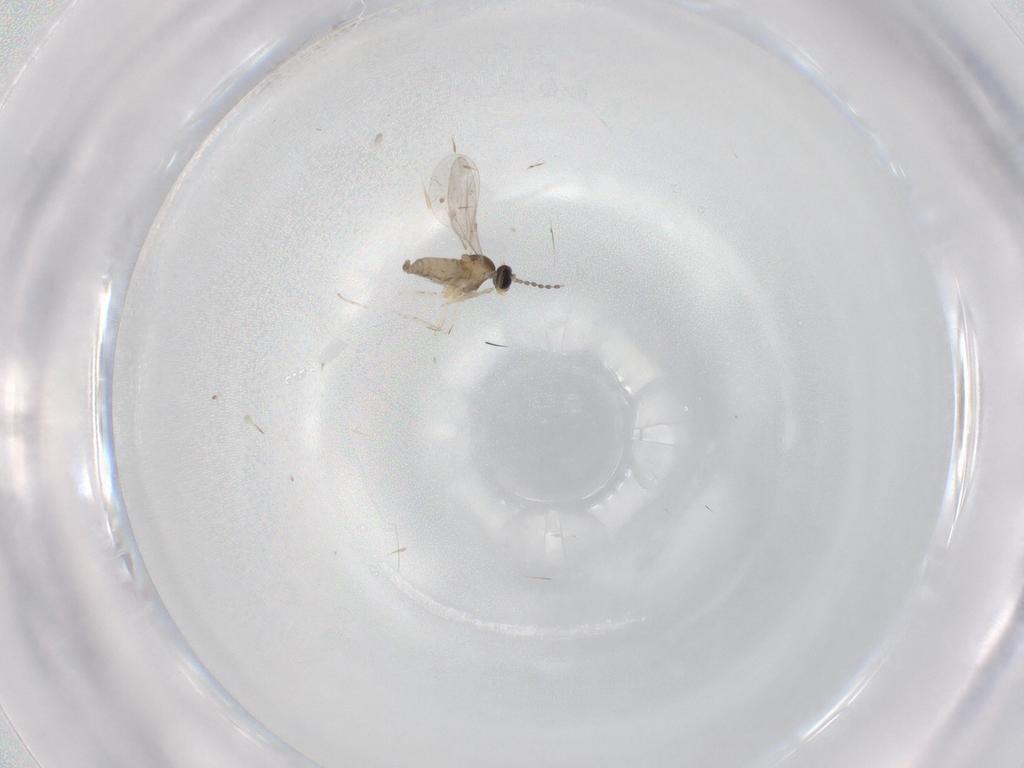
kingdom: Animalia
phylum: Arthropoda
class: Insecta
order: Diptera
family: Cecidomyiidae
